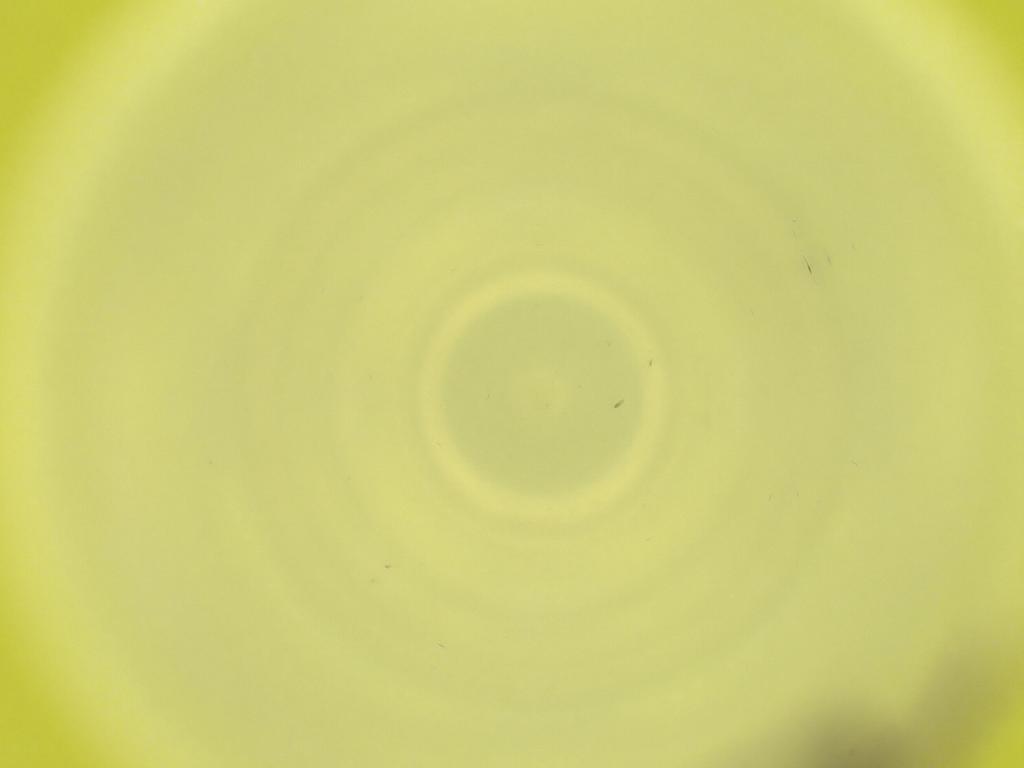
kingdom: Animalia
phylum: Arthropoda
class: Insecta
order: Diptera
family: Cecidomyiidae
